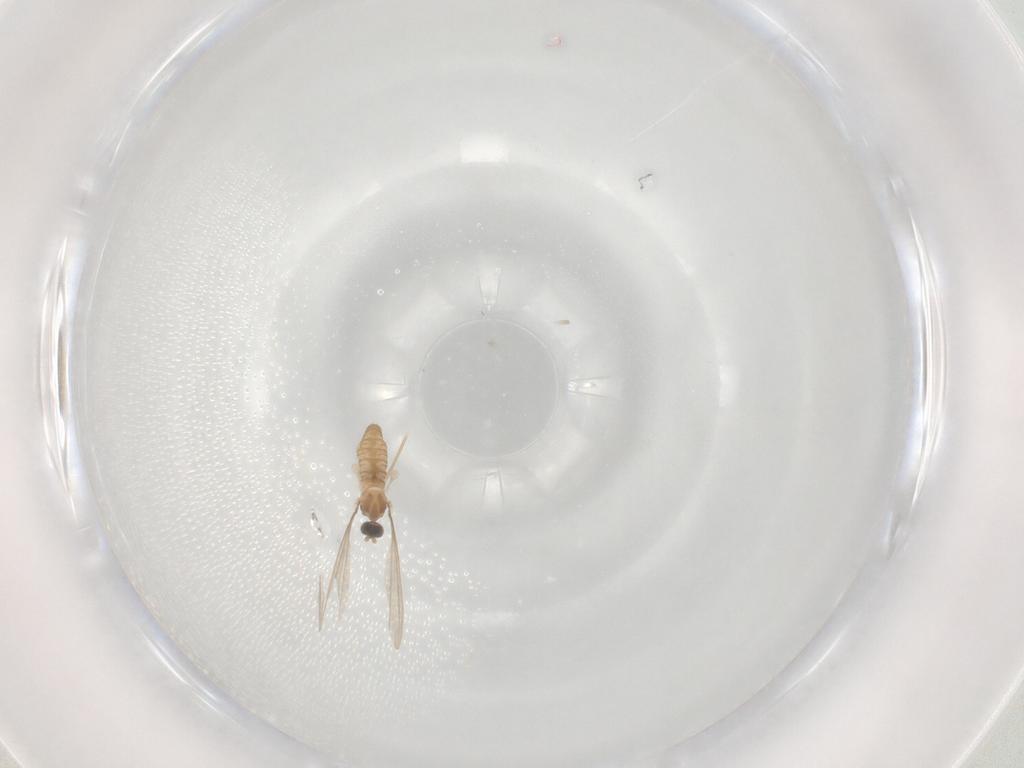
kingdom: Animalia
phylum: Arthropoda
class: Insecta
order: Diptera
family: Cecidomyiidae
